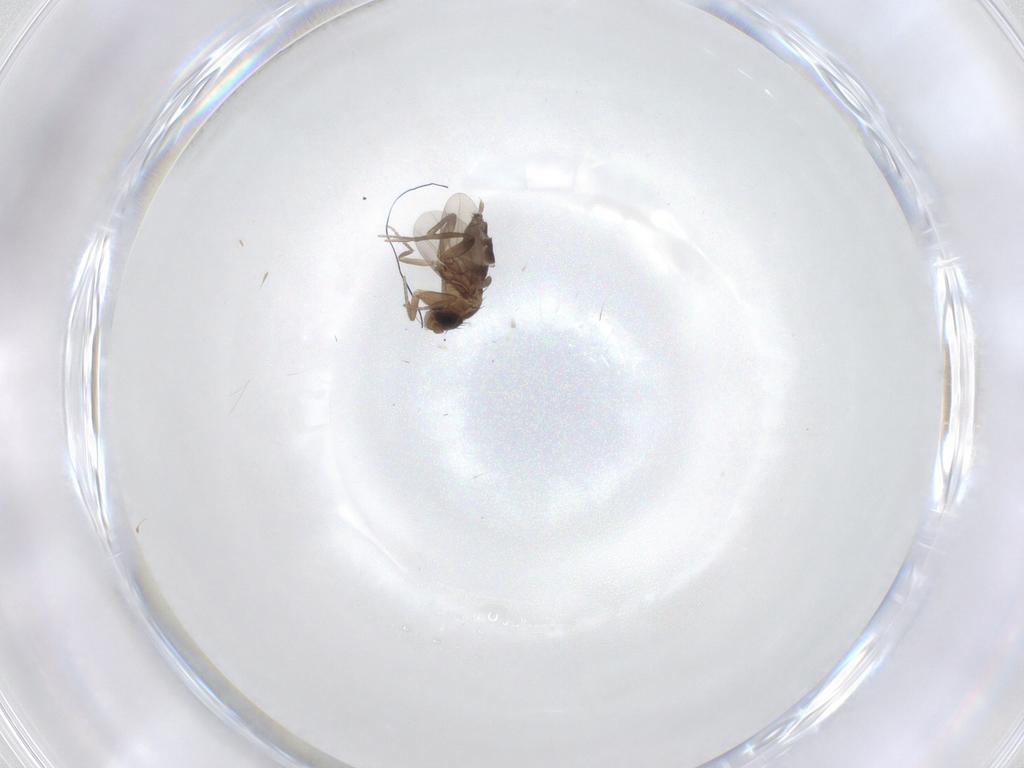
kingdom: Animalia
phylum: Arthropoda
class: Insecta
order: Diptera
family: Phoridae
